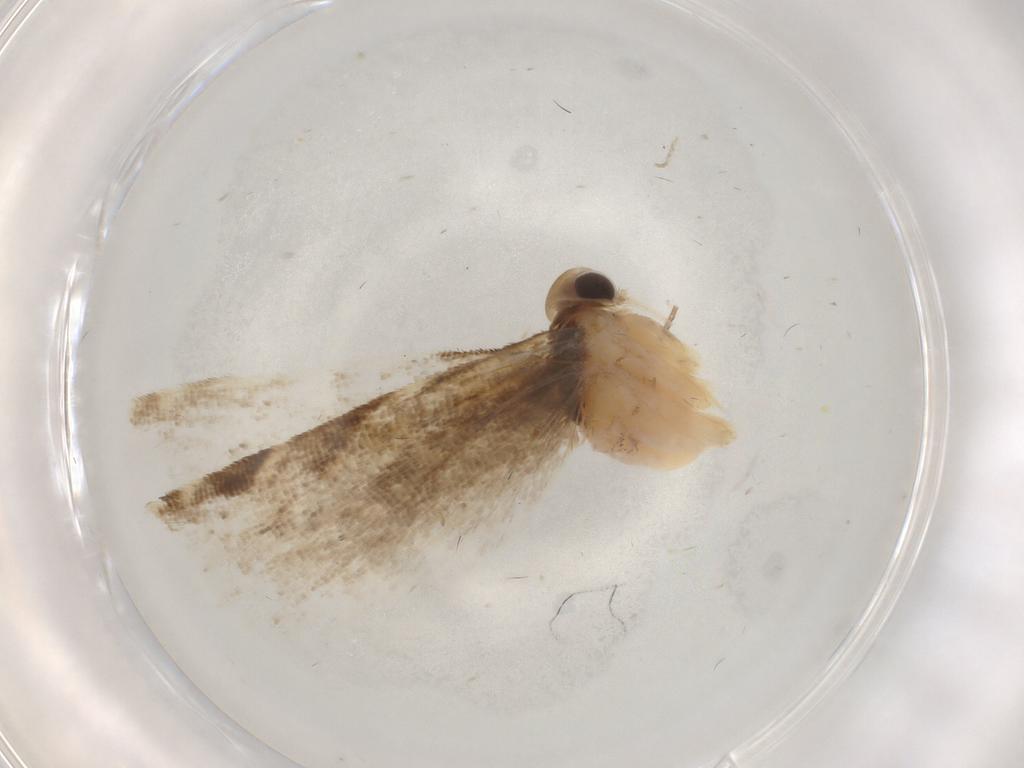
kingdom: Animalia
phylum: Arthropoda
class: Insecta
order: Lepidoptera
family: Gelechiidae
